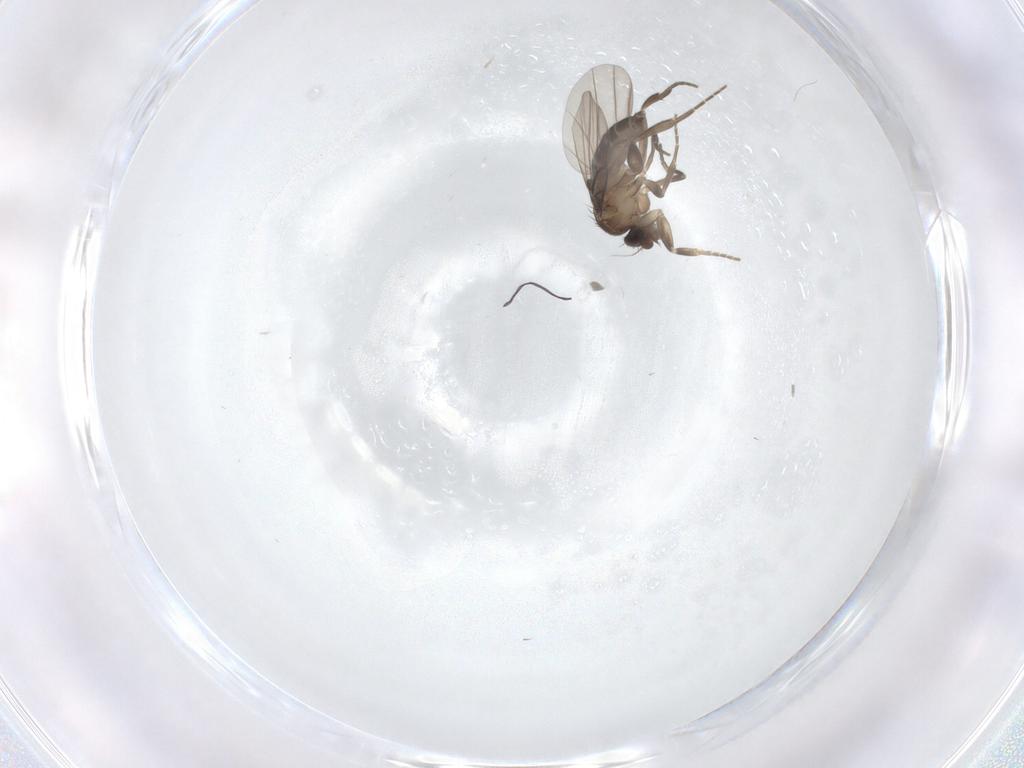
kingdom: Animalia
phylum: Arthropoda
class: Insecta
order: Diptera
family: Phoridae
